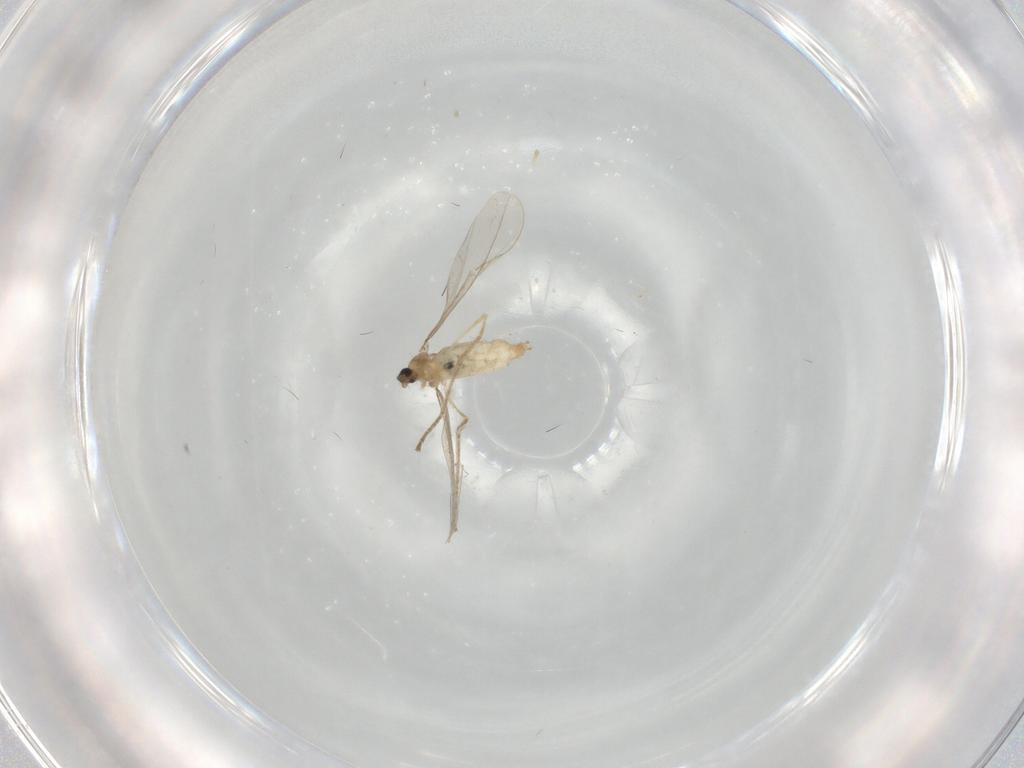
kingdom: Animalia
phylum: Arthropoda
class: Insecta
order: Diptera
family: Cecidomyiidae
